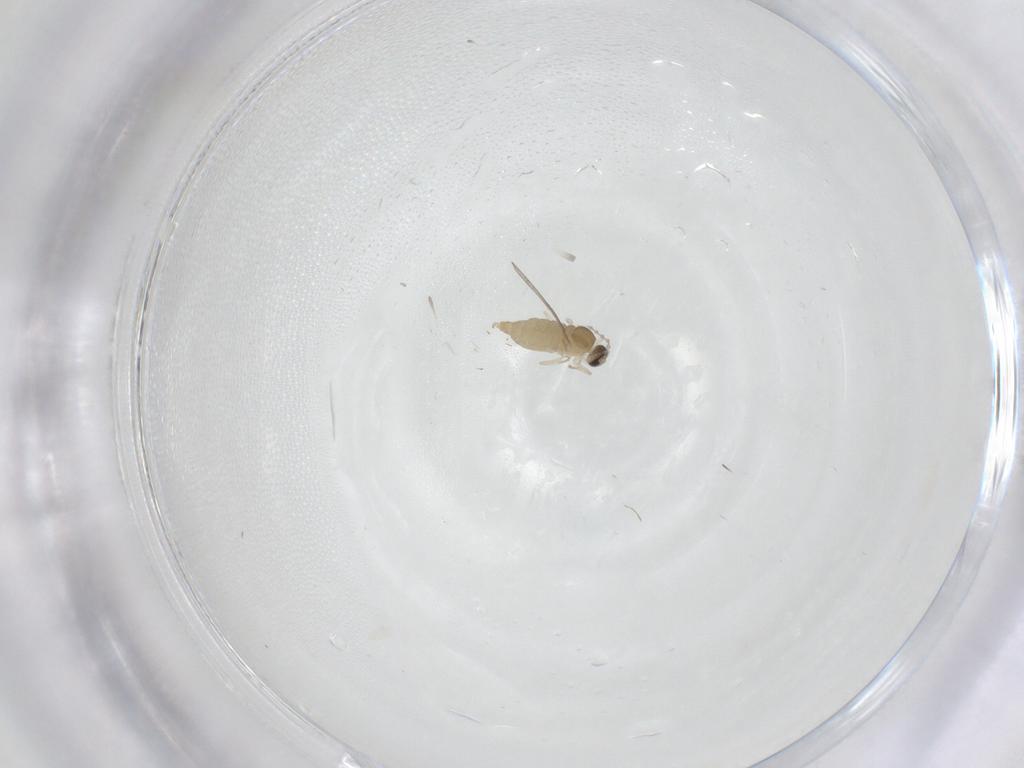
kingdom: Animalia
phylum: Arthropoda
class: Insecta
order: Diptera
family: Cecidomyiidae
